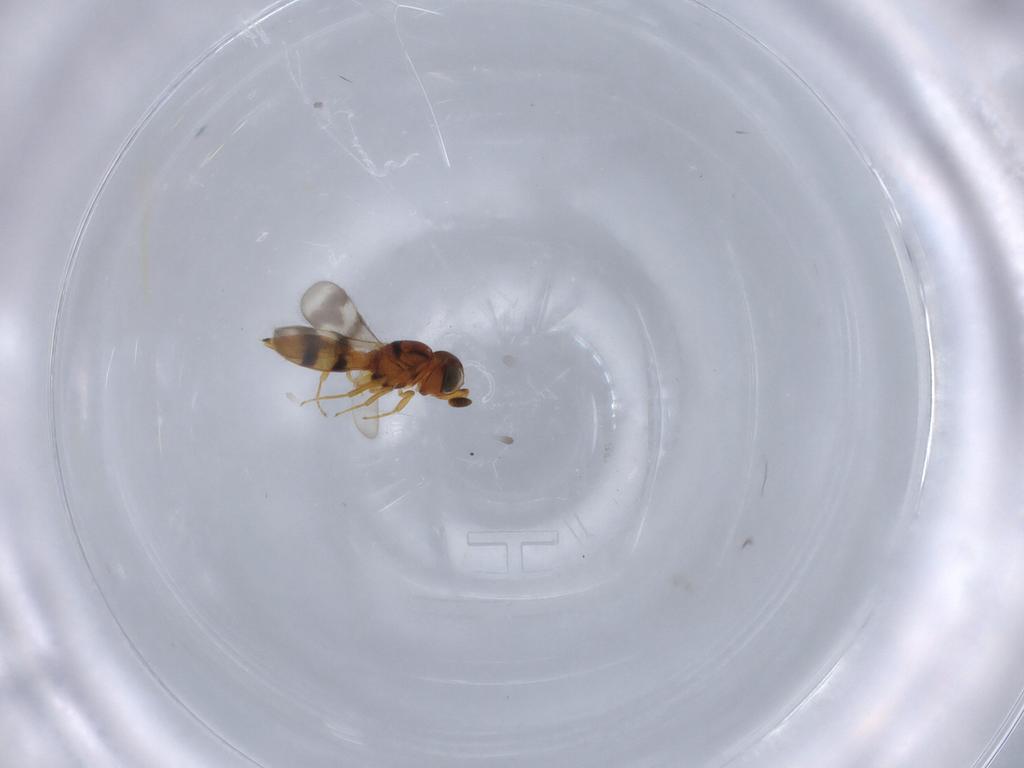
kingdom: Animalia
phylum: Arthropoda
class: Insecta
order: Hymenoptera
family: Scelionidae
